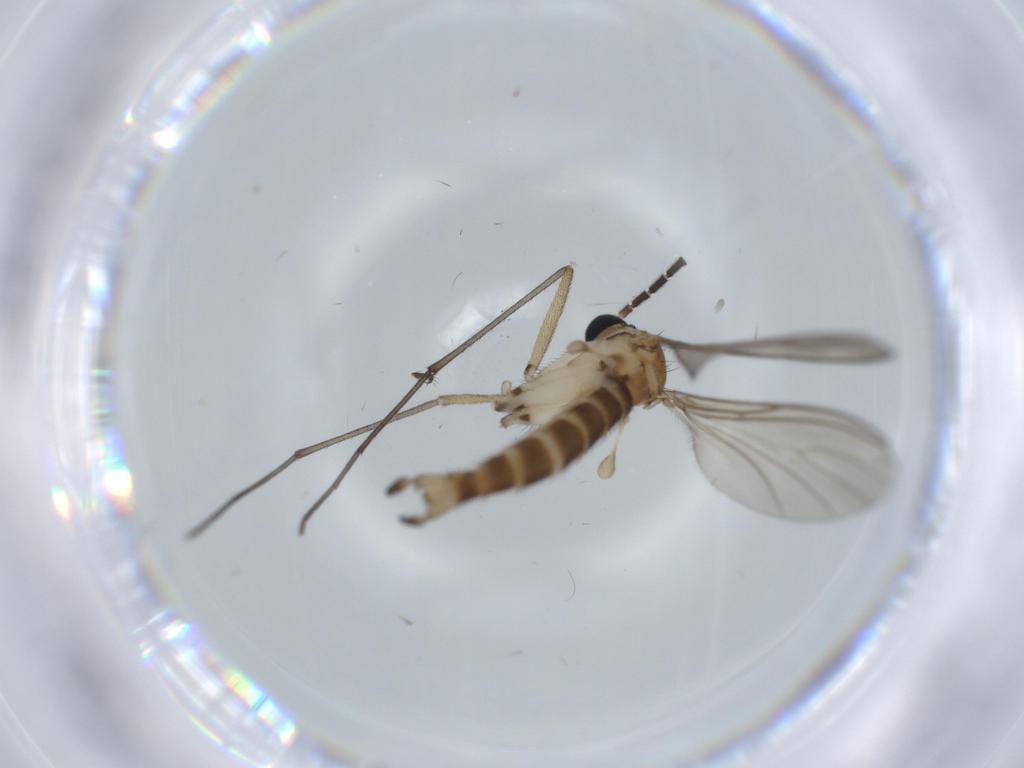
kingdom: Animalia
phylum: Arthropoda
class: Insecta
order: Diptera
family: Sciaridae
